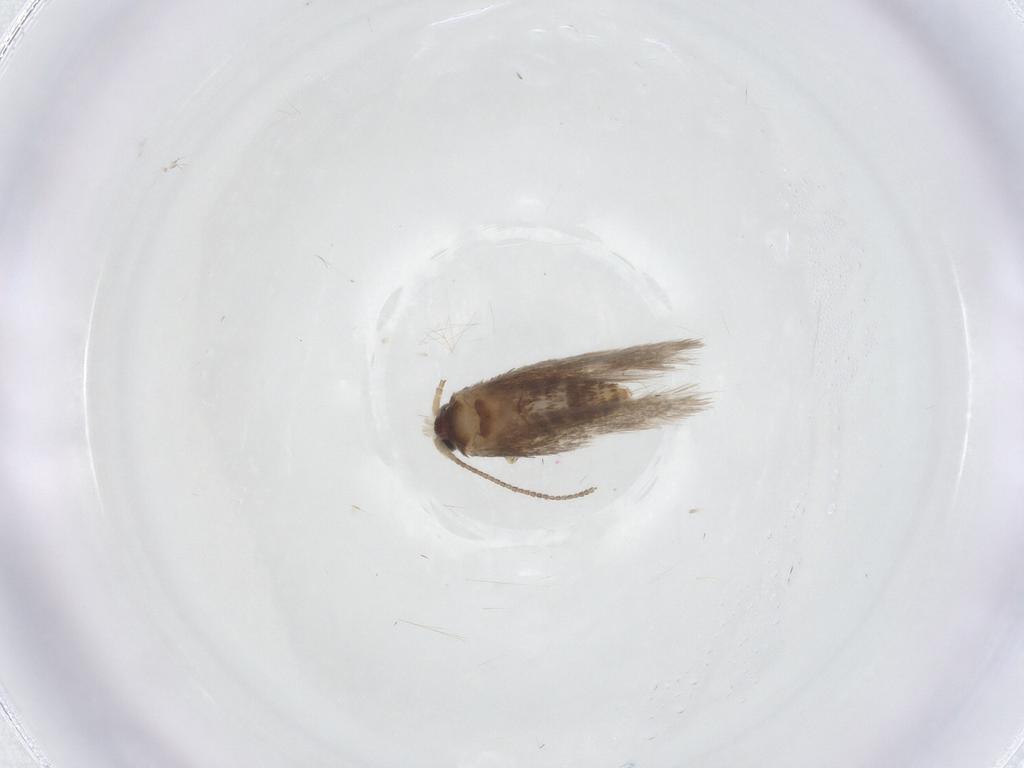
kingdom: Animalia
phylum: Arthropoda
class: Insecta
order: Lepidoptera
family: Nepticulidae
